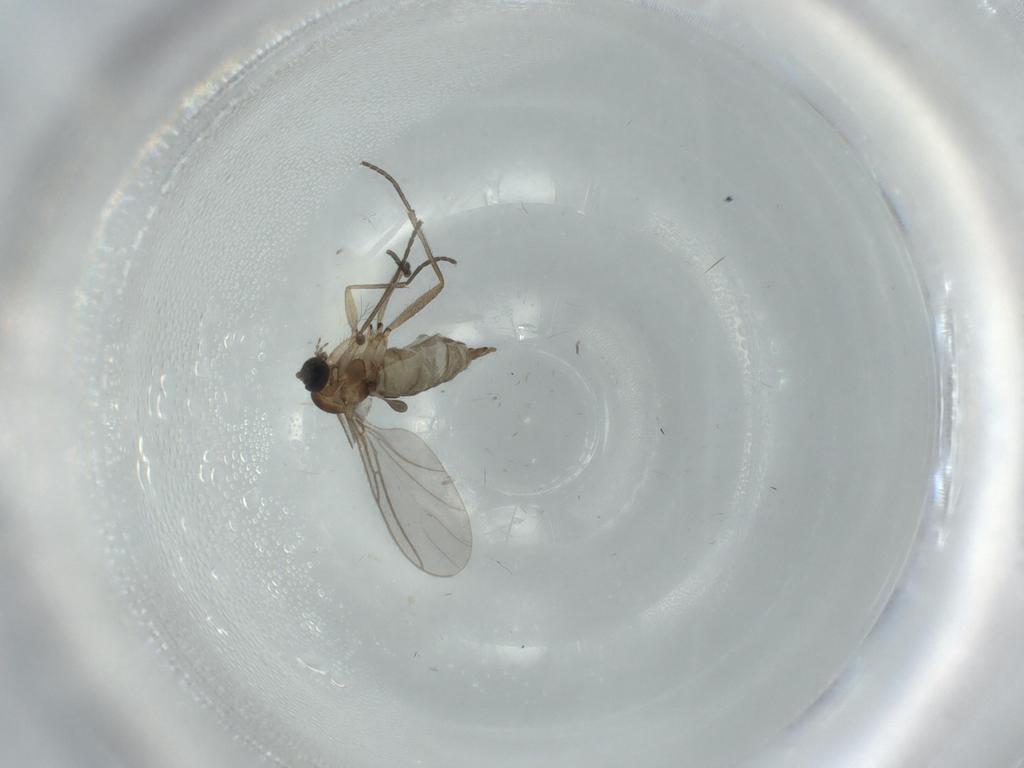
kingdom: Animalia
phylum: Arthropoda
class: Insecta
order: Diptera
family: Sciaridae
